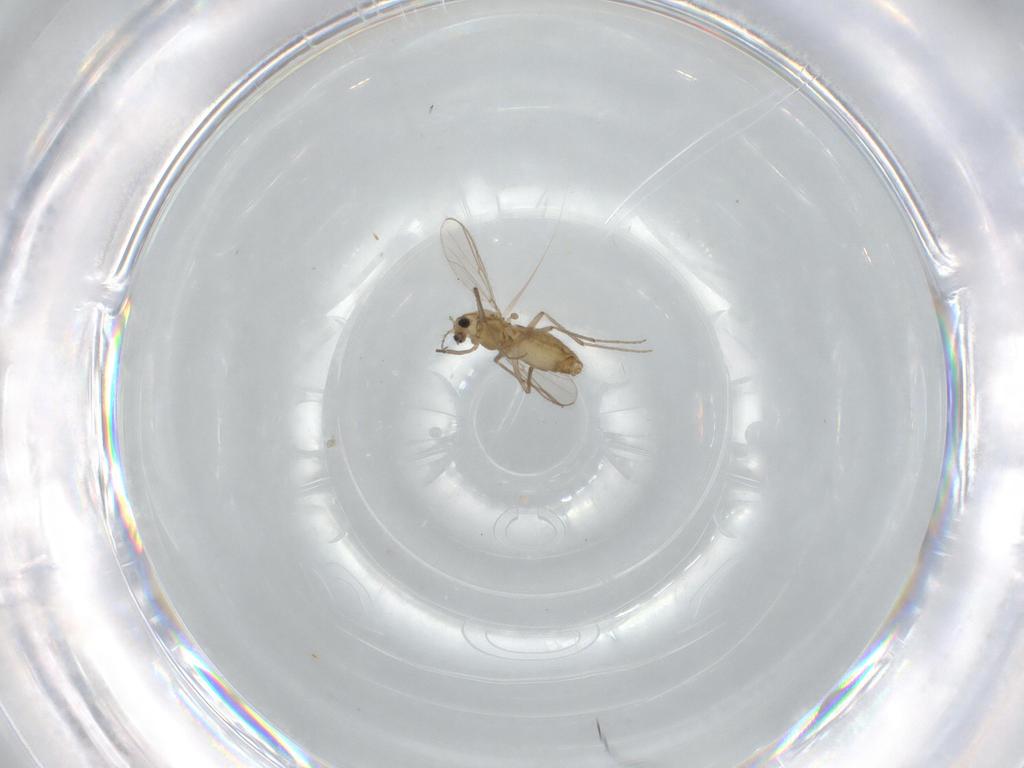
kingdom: Animalia
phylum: Arthropoda
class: Insecta
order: Diptera
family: Chironomidae
